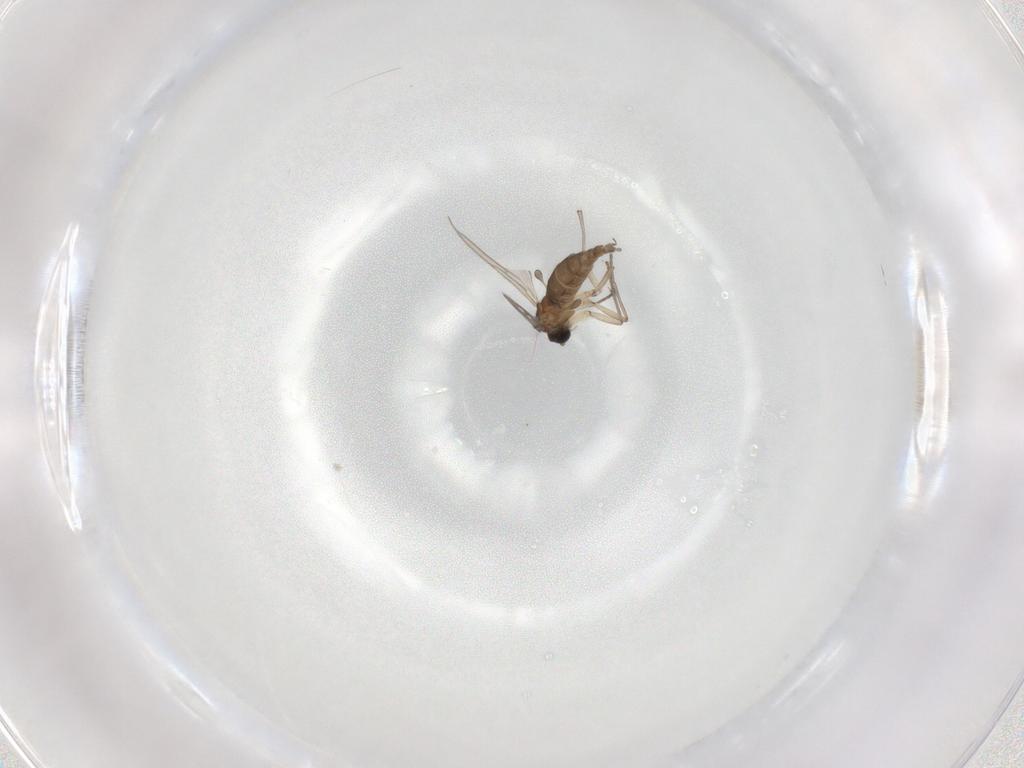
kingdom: Animalia
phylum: Arthropoda
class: Insecta
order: Diptera
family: Sciaridae
